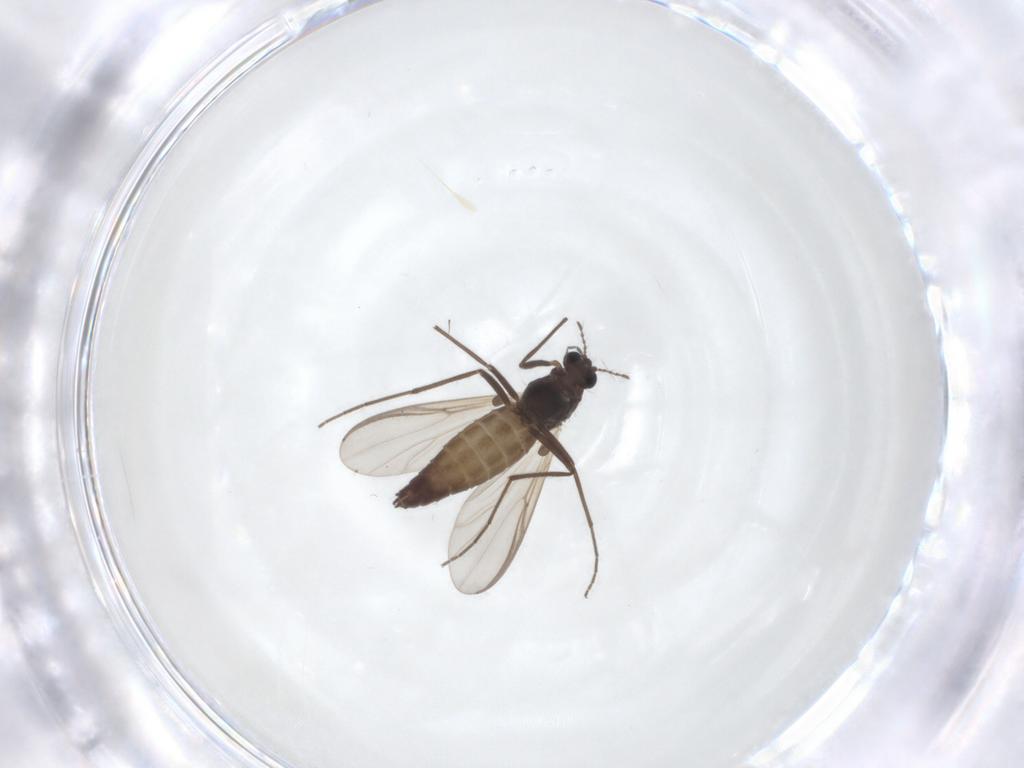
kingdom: Animalia
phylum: Arthropoda
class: Insecta
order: Diptera
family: Chironomidae
